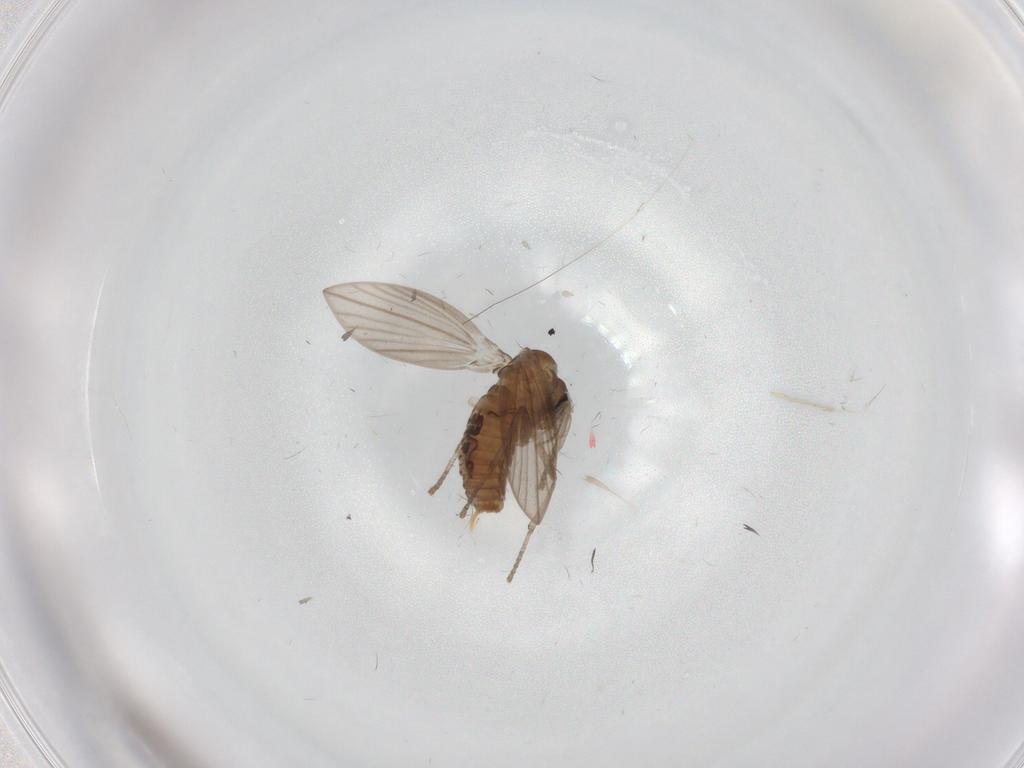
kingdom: Animalia
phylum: Arthropoda
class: Insecta
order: Diptera
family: Psychodidae
